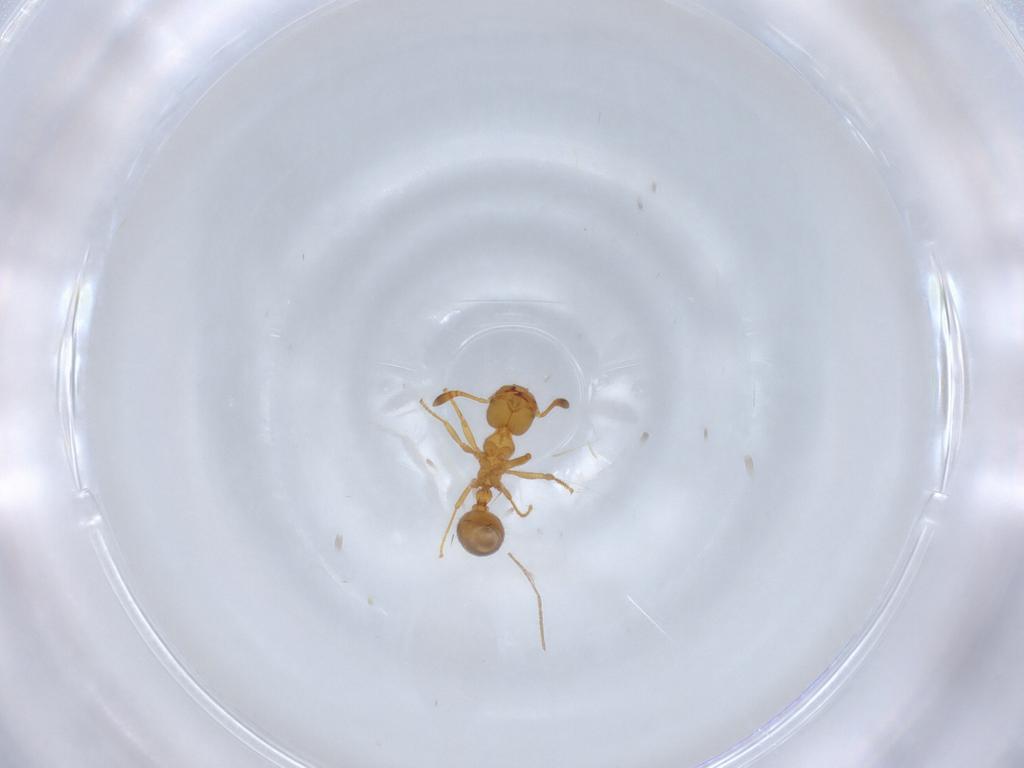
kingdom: Animalia
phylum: Arthropoda
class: Insecta
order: Hymenoptera
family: Formicidae
